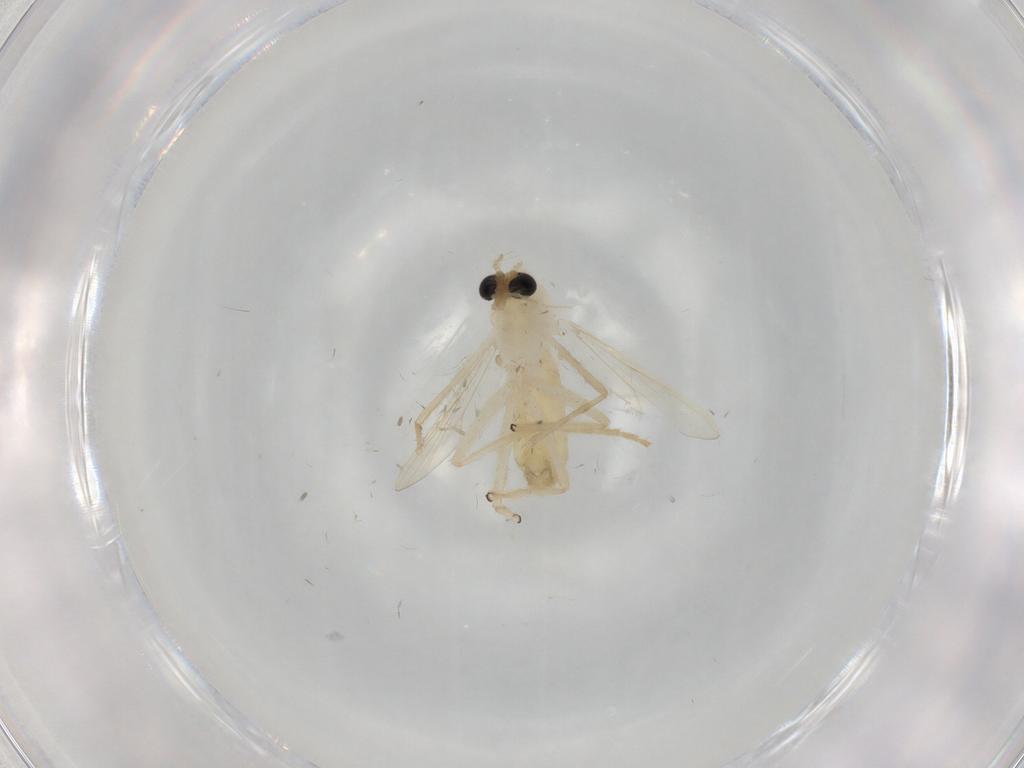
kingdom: Animalia
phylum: Arthropoda
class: Insecta
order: Diptera
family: Chironomidae
